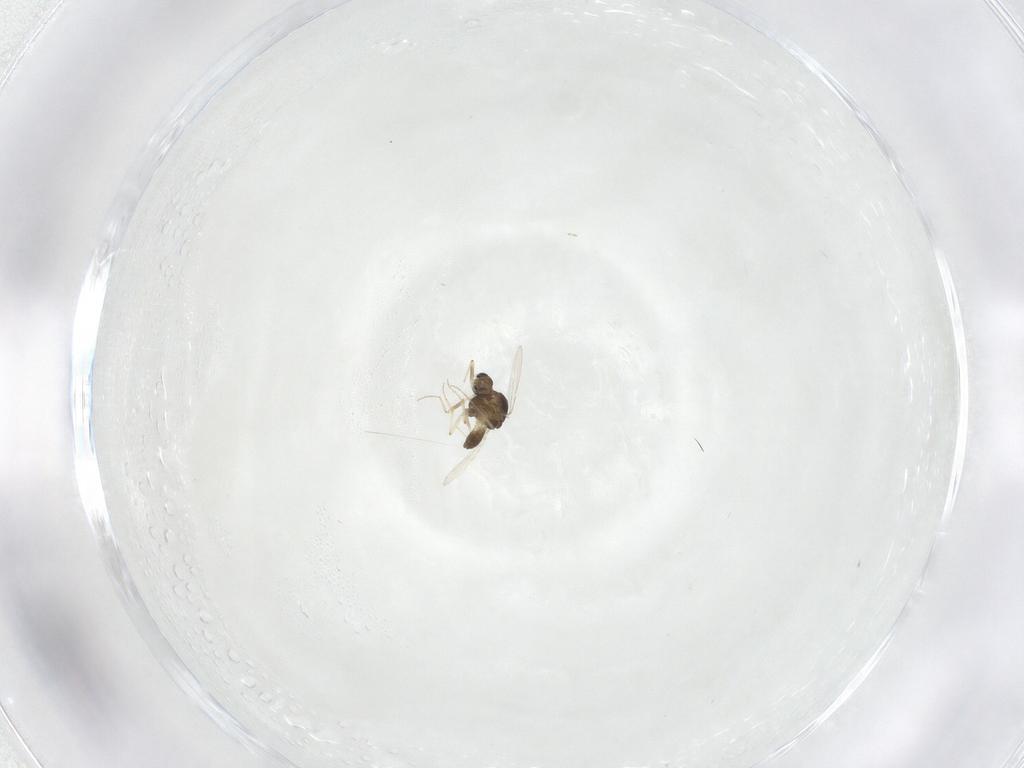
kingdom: Animalia
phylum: Arthropoda
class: Insecta
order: Diptera
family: Chironomidae
